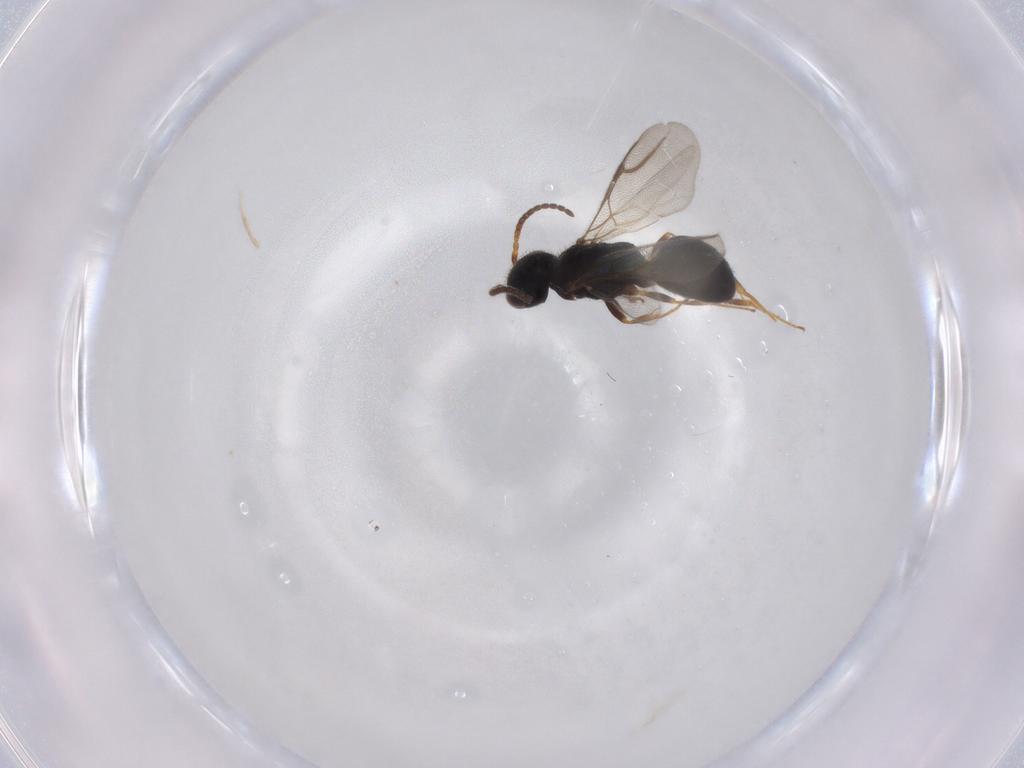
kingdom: Animalia
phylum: Arthropoda
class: Insecta
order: Hymenoptera
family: Bethylidae
